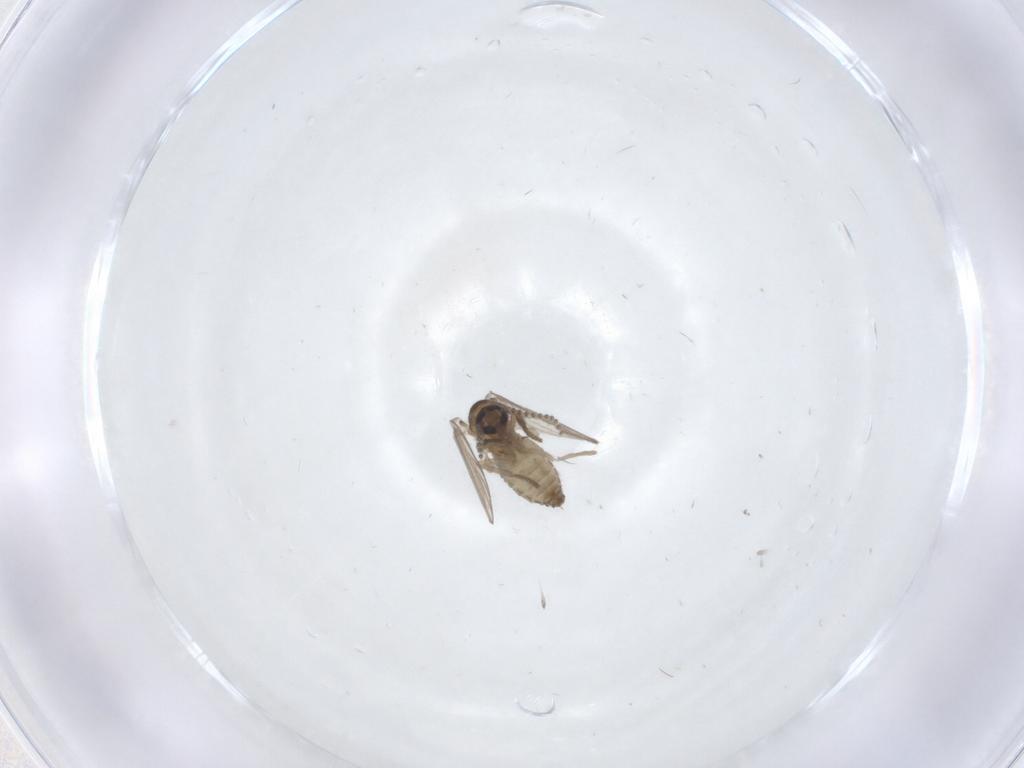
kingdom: Animalia
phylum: Arthropoda
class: Insecta
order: Diptera
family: Psychodidae
